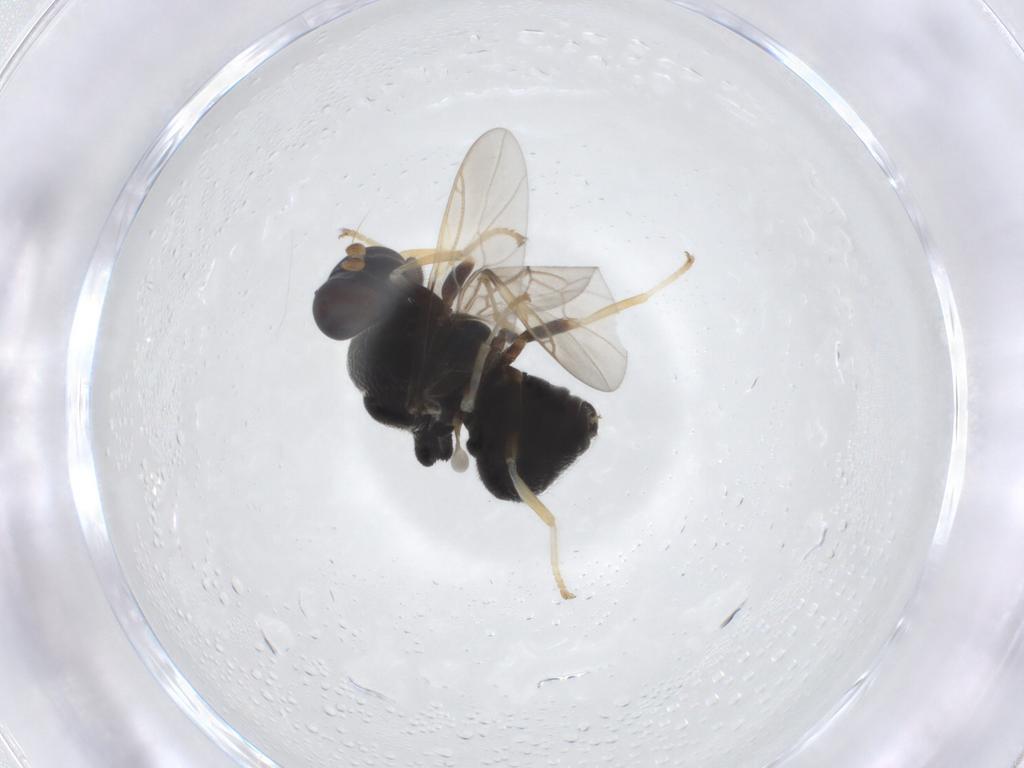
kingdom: Animalia
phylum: Arthropoda
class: Insecta
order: Diptera
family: Stratiomyidae
